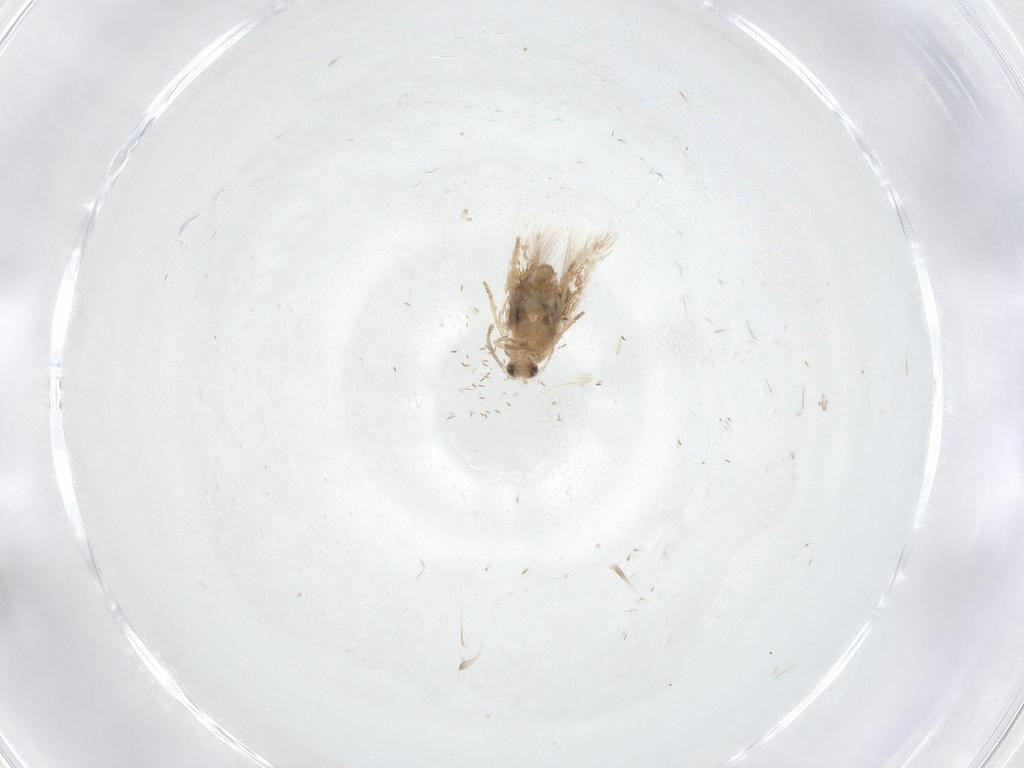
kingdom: Animalia
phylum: Arthropoda
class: Insecta
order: Lepidoptera
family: Nepticulidae
